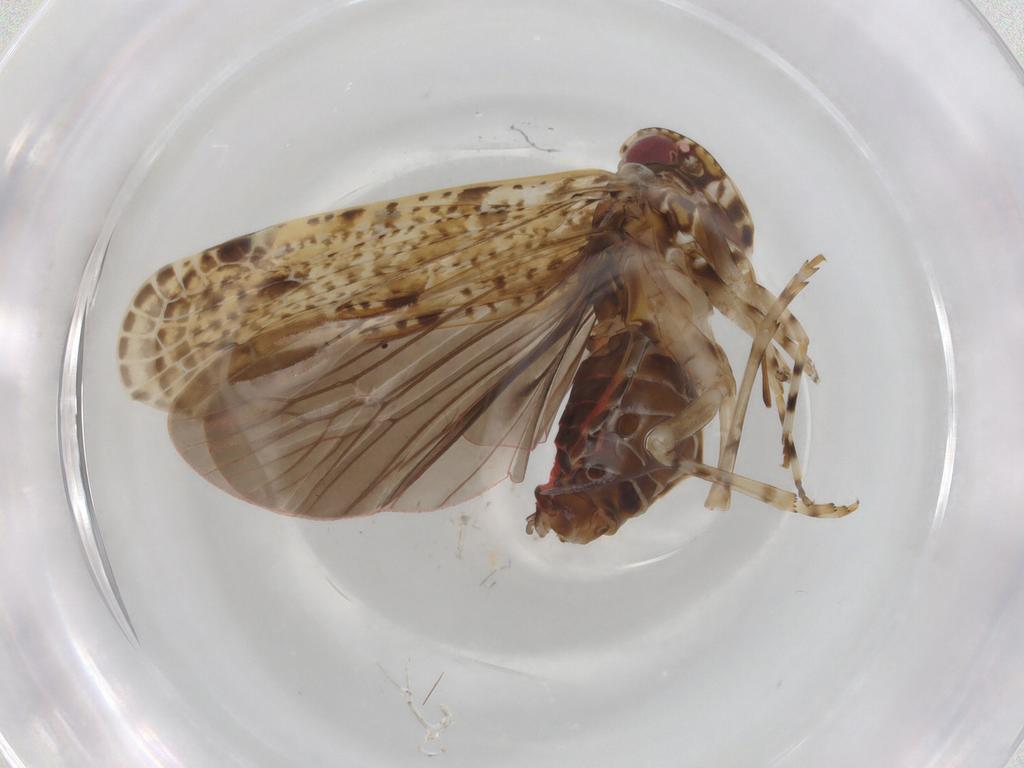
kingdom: Animalia
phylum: Arthropoda
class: Insecta
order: Hemiptera
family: Aleyrodidae
